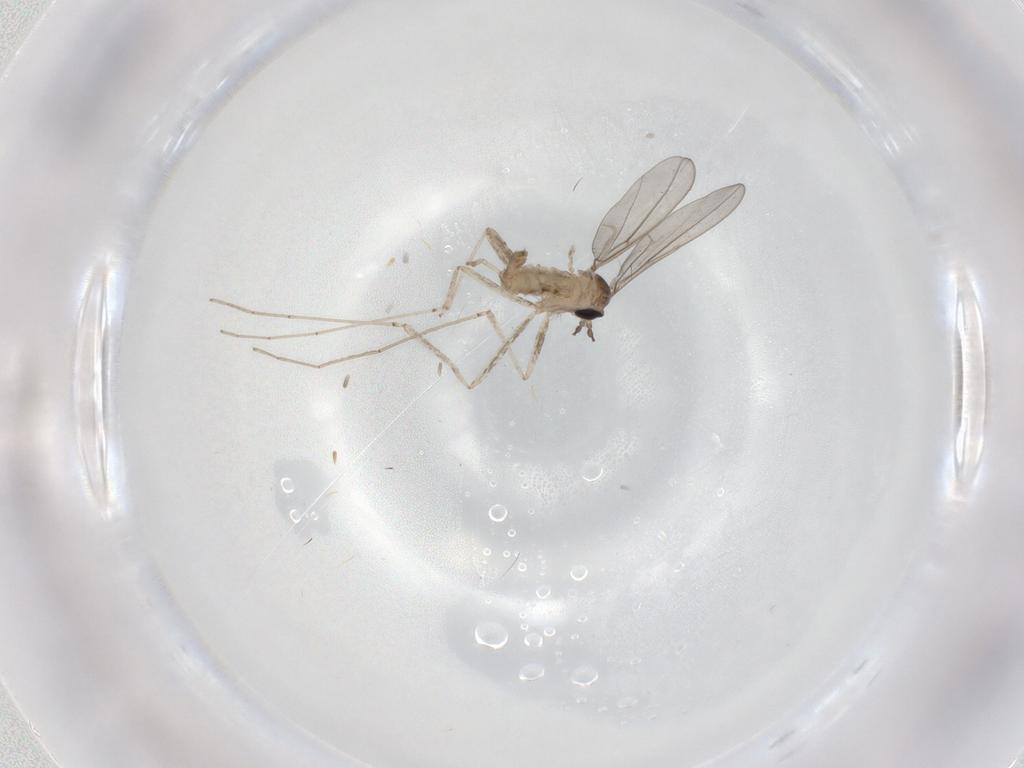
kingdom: Animalia
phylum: Arthropoda
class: Insecta
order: Diptera
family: Cecidomyiidae
